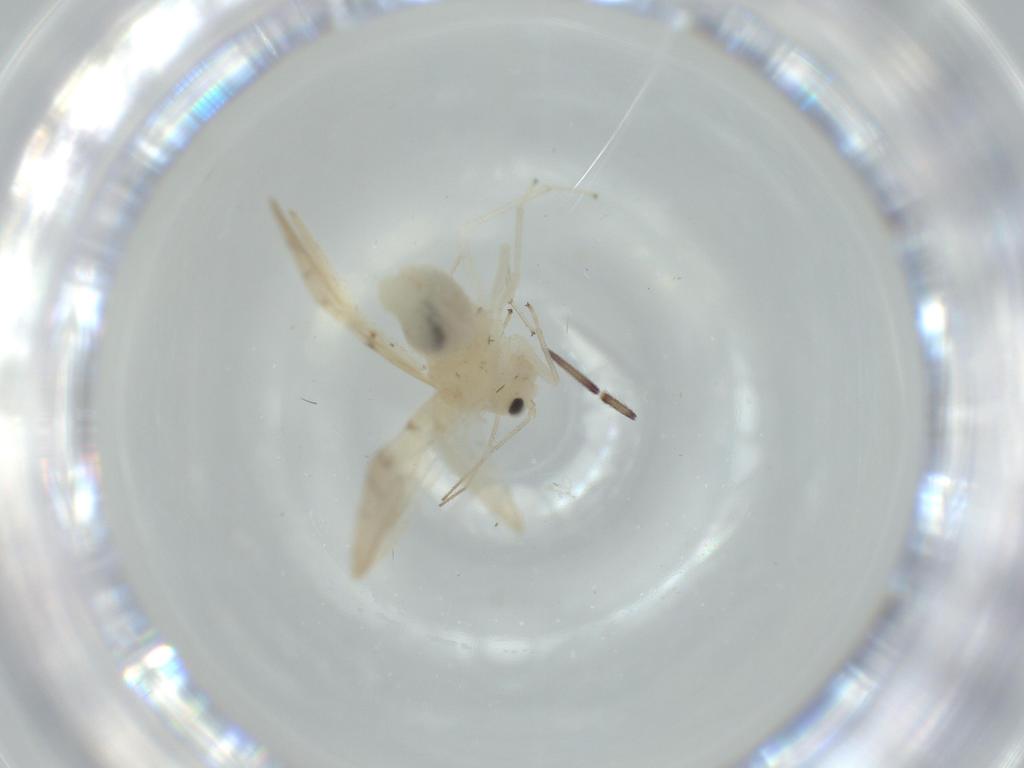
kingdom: Animalia
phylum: Arthropoda
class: Insecta
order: Psocodea
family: Caeciliusidae
